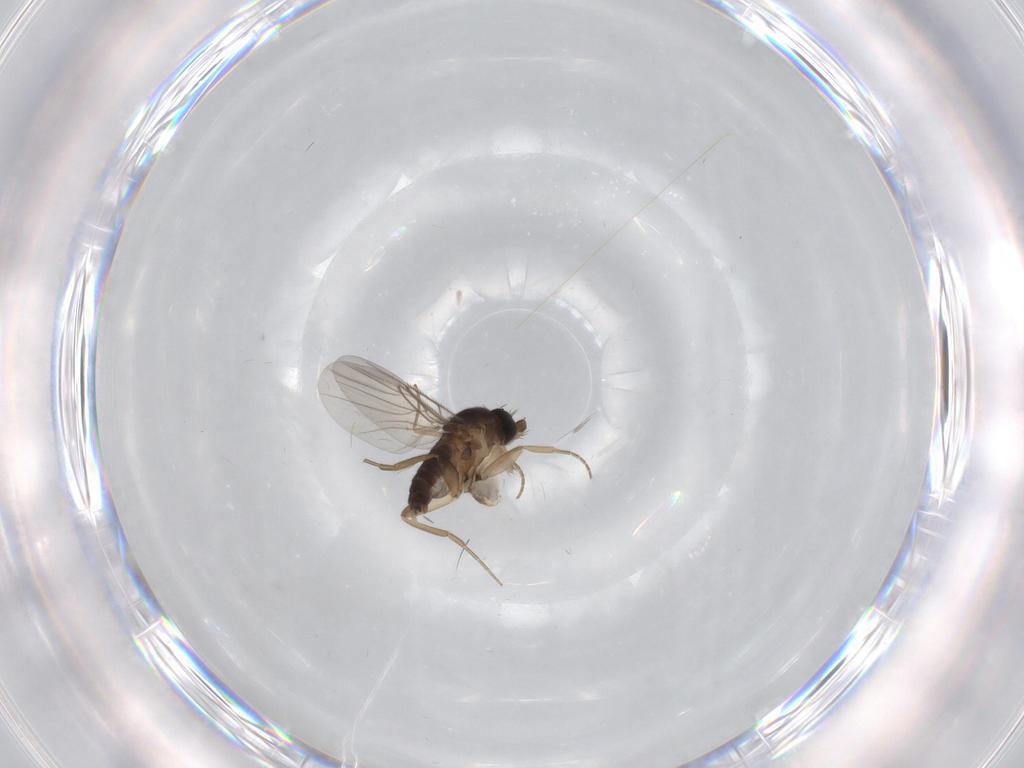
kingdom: Animalia
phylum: Arthropoda
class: Insecta
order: Diptera
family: Phoridae
